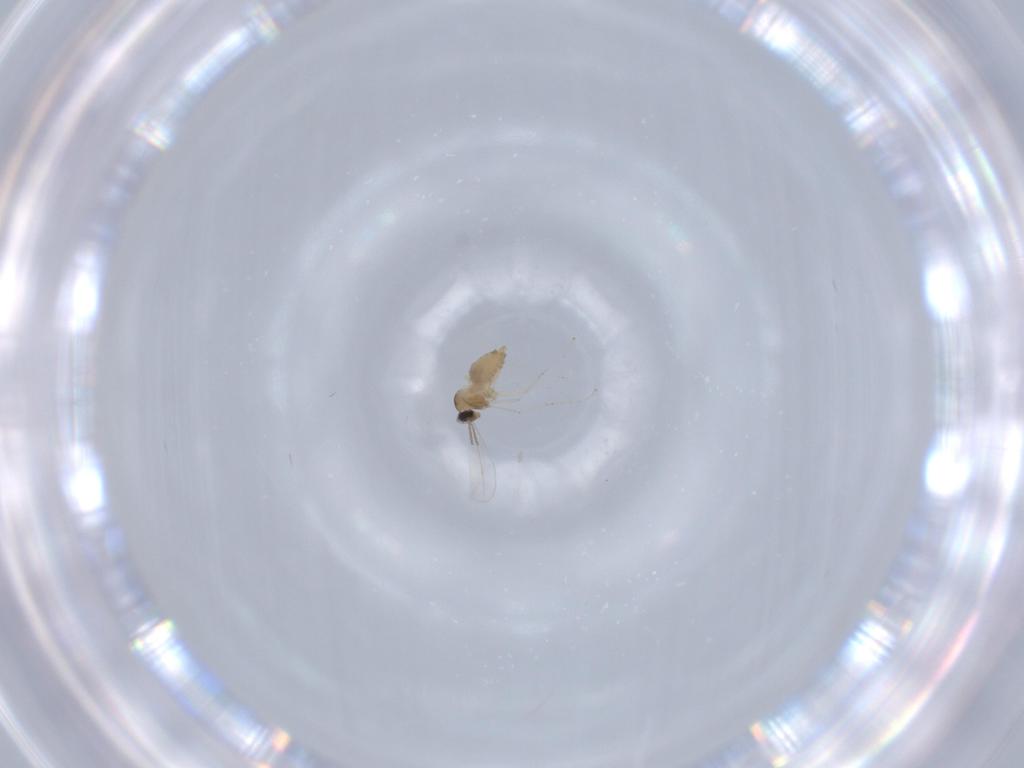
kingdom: Animalia
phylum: Arthropoda
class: Insecta
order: Diptera
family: Cecidomyiidae
